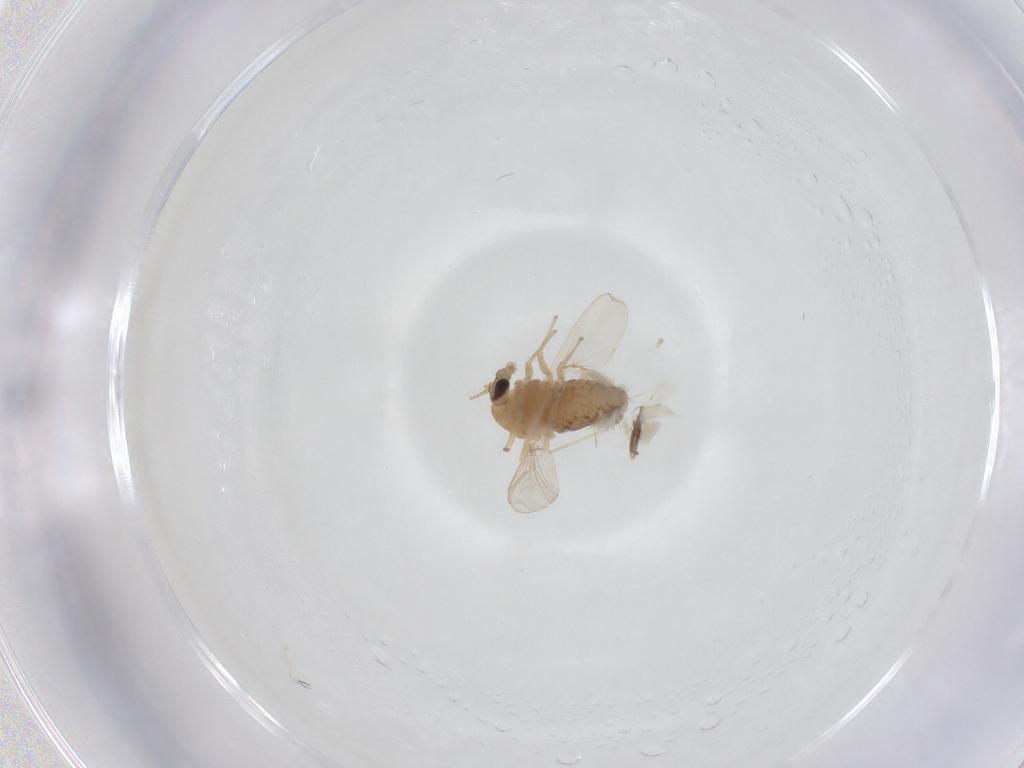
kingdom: Animalia
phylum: Arthropoda
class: Insecta
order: Diptera
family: Chironomidae
